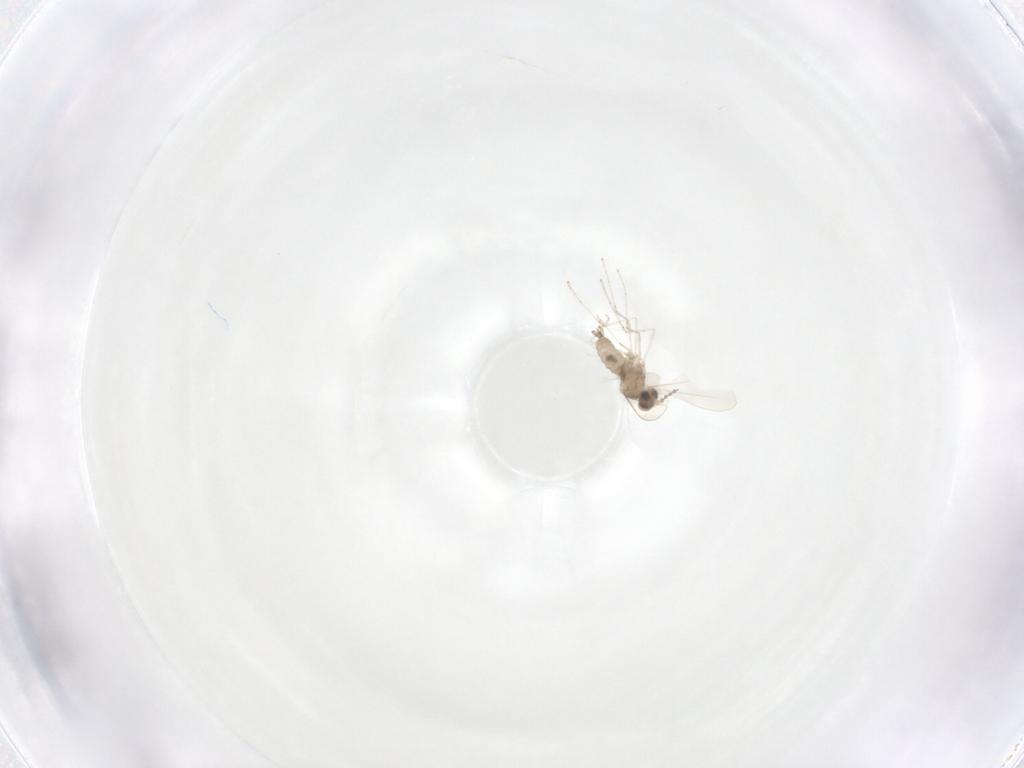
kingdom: Animalia
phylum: Arthropoda
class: Insecta
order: Diptera
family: Cecidomyiidae
